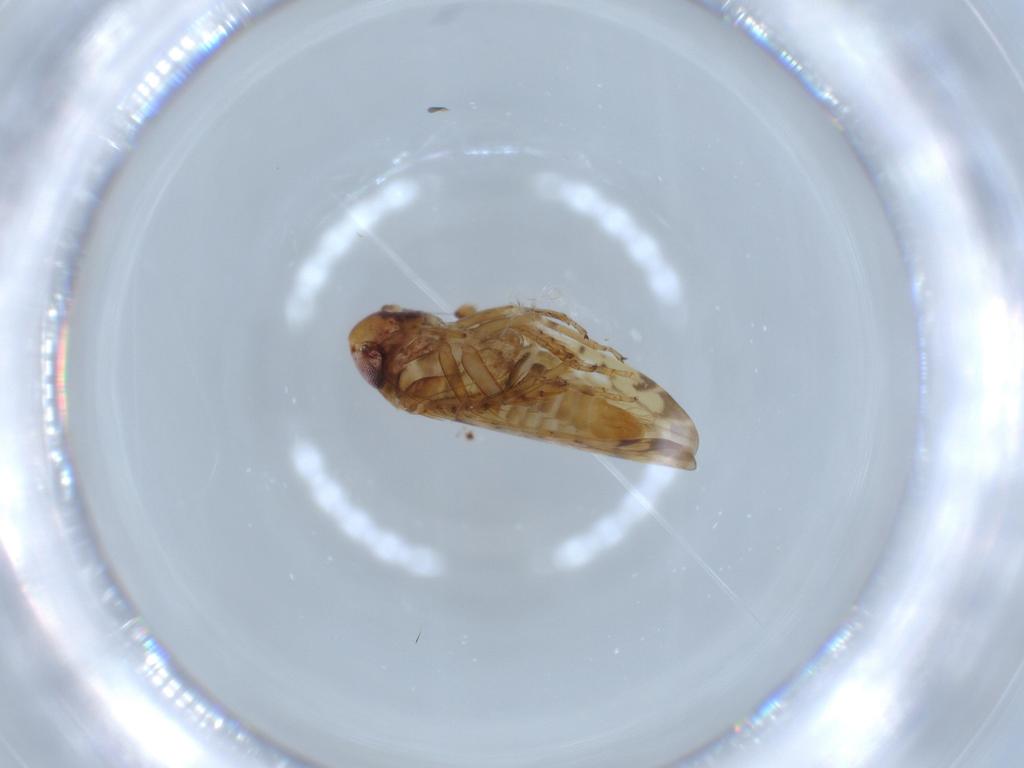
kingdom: Animalia
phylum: Arthropoda
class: Insecta
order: Hemiptera
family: Cicadellidae
